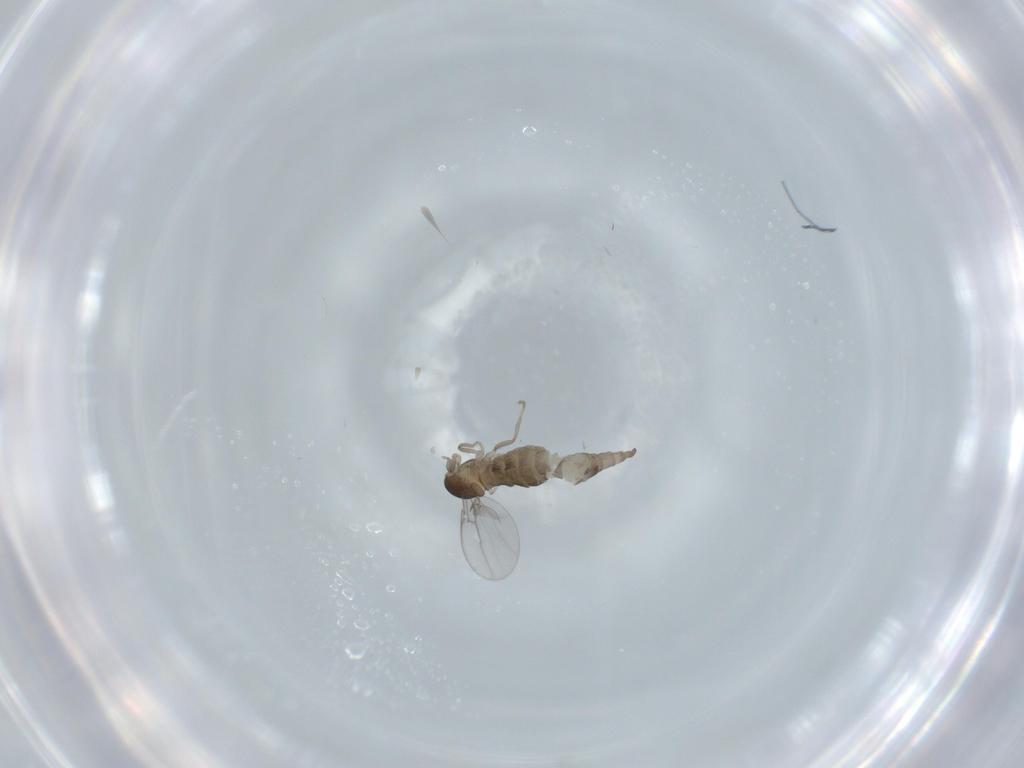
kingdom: Animalia
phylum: Arthropoda
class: Insecta
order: Diptera
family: Cecidomyiidae
